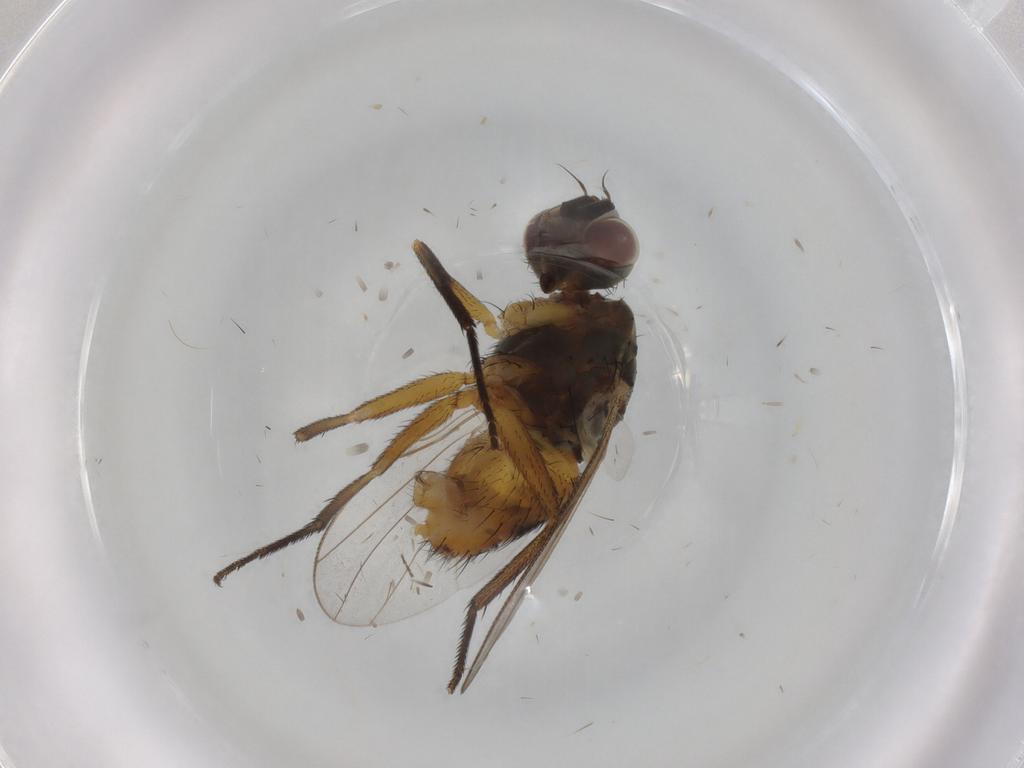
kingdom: Animalia
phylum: Arthropoda
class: Insecta
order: Diptera
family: Muscidae
